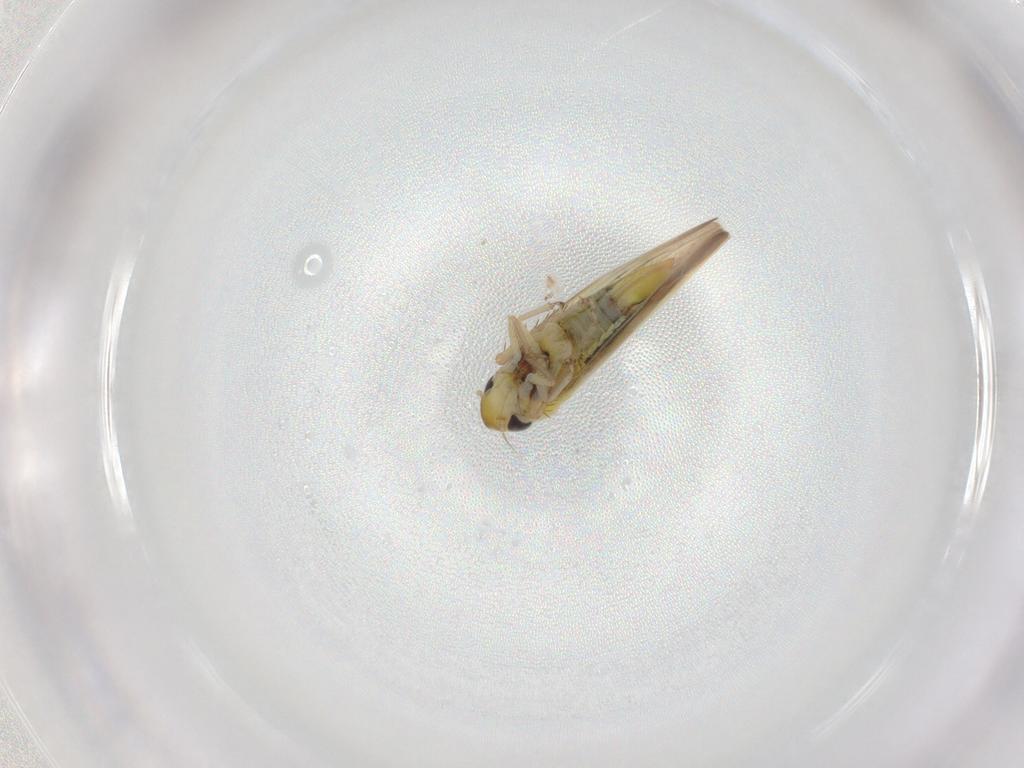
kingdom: Animalia
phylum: Arthropoda
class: Insecta
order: Hemiptera
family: Cicadellidae
